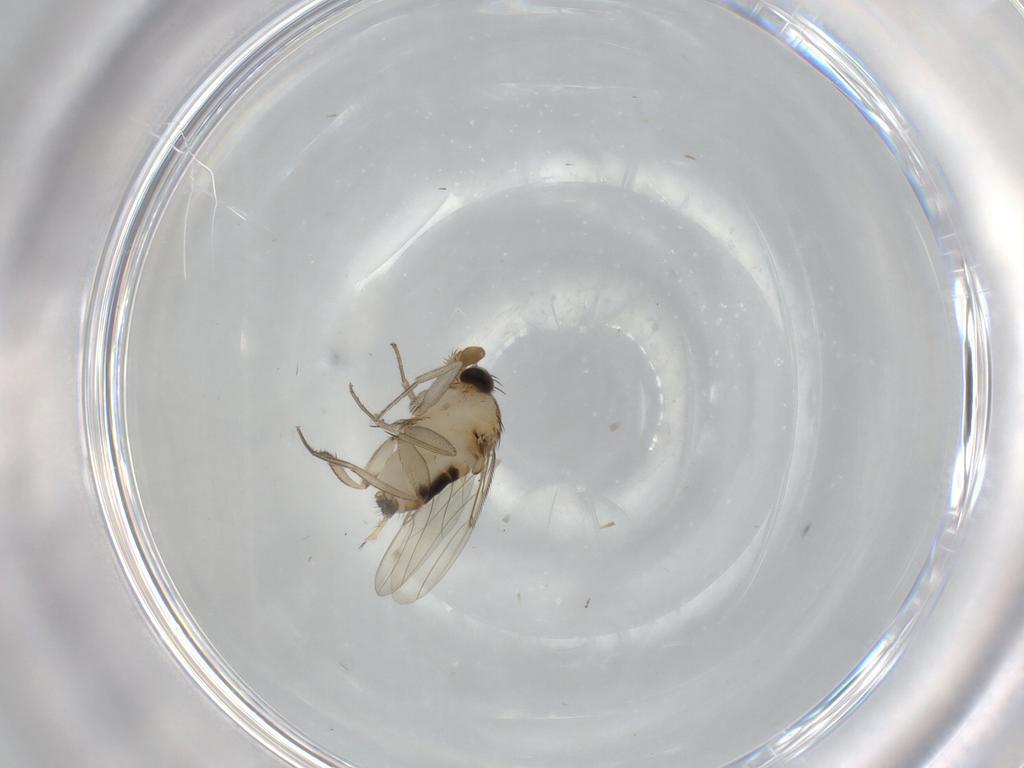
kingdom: Animalia
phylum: Arthropoda
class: Insecta
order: Diptera
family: Phoridae
